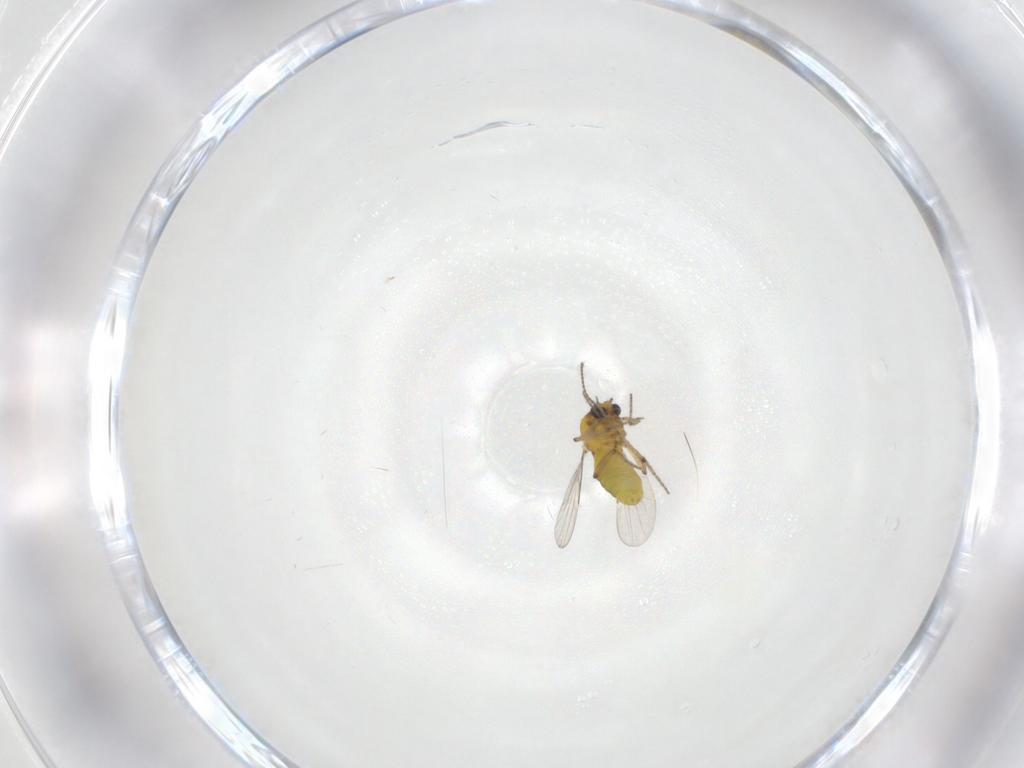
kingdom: Animalia
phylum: Arthropoda
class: Insecta
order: Diptera
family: Ceratopogonidae
